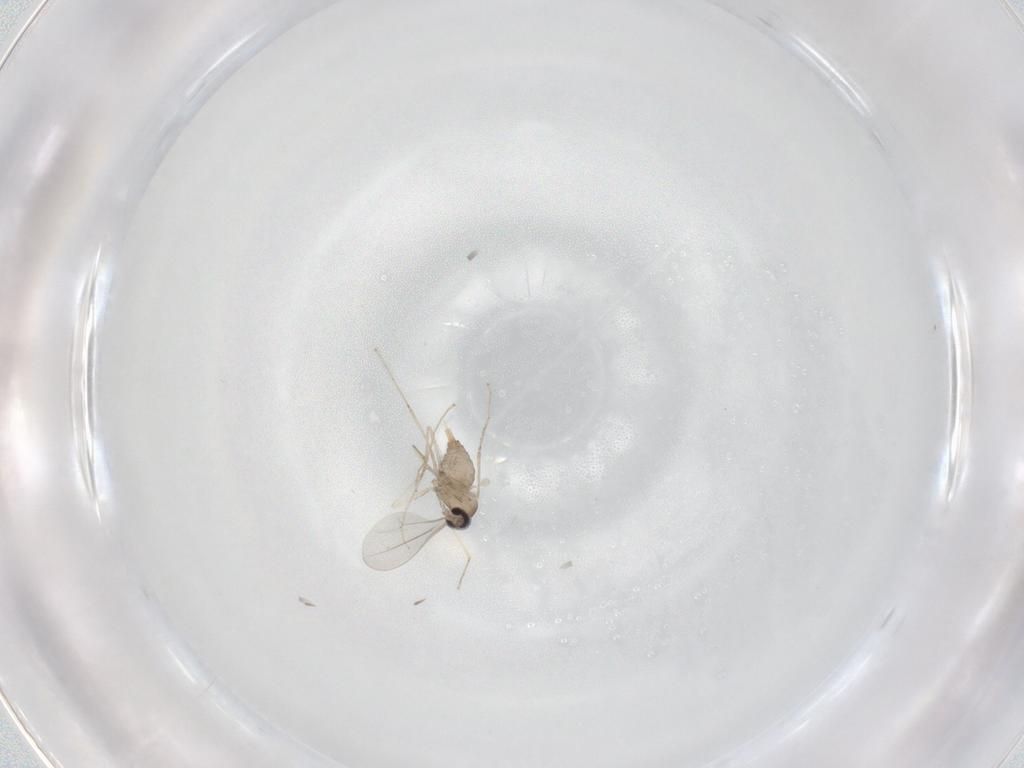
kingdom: Animalia
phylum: Arthropoda
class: Insecta
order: Diptera
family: Cecidomyiidae
